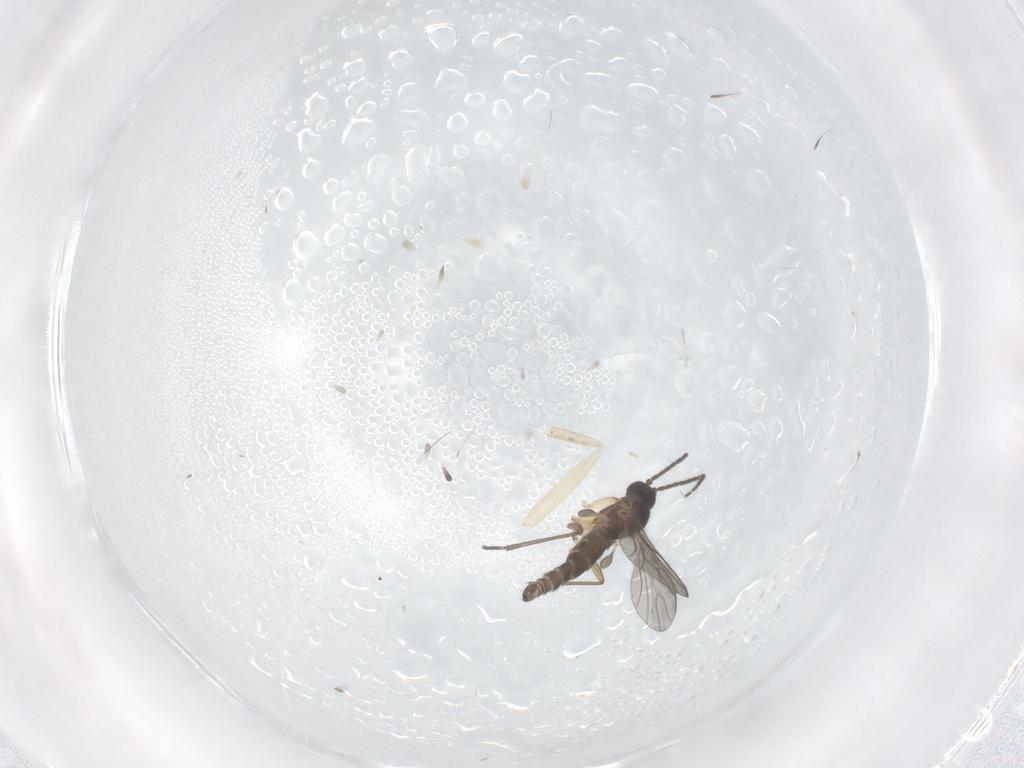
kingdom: Animalia
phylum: Arthropoda
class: Insecta
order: Diptera
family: Sciaridae
